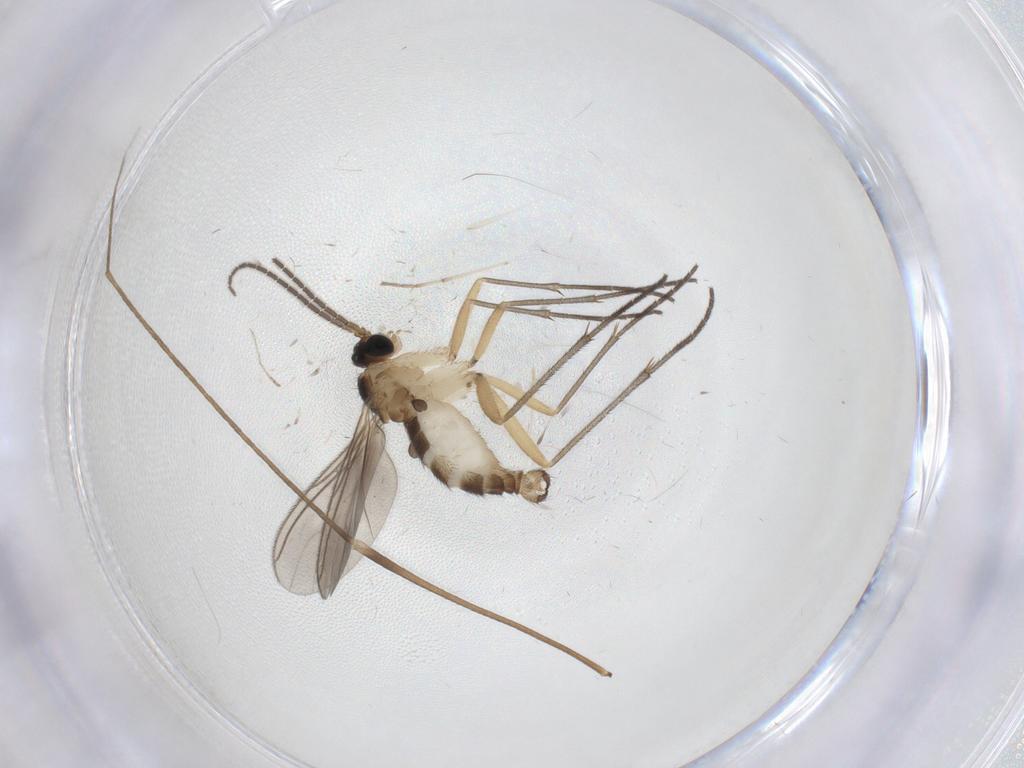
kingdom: Animalia
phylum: Arthropoda
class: Insecta
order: Diptera
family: Limoniidae
